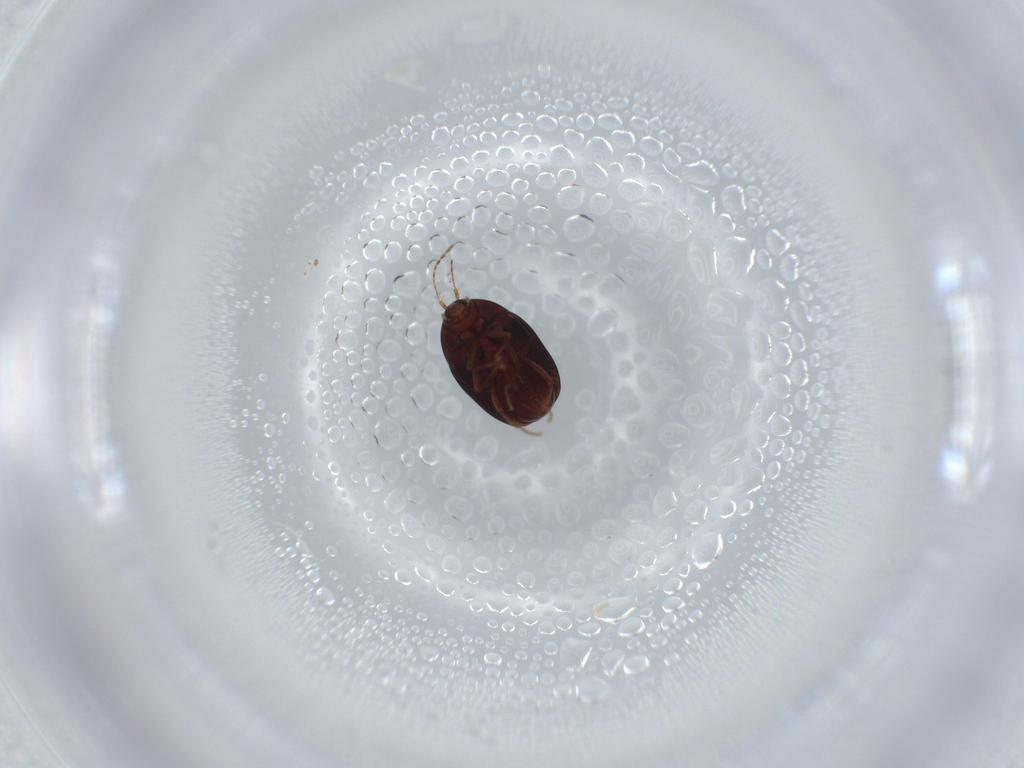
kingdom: Animalia
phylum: Arthropoda
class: Insecta
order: Coleoptera
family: Staphylinidae
